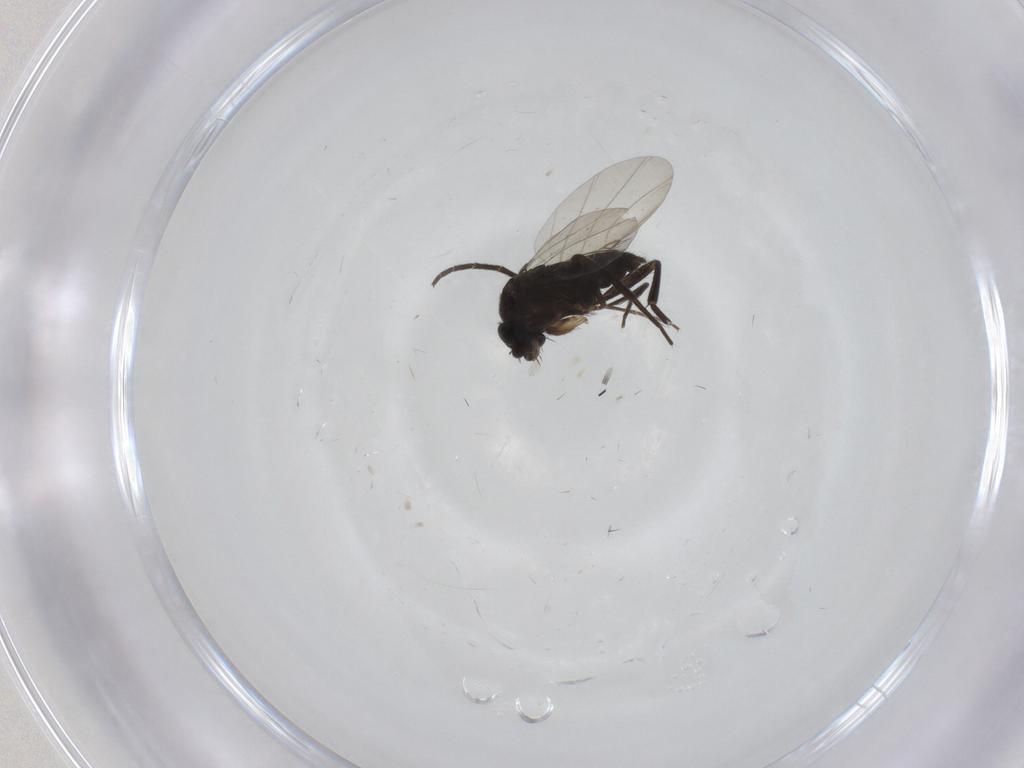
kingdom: Animalia
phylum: Arthropoda
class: Insecta
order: Diptera
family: Phoridae
